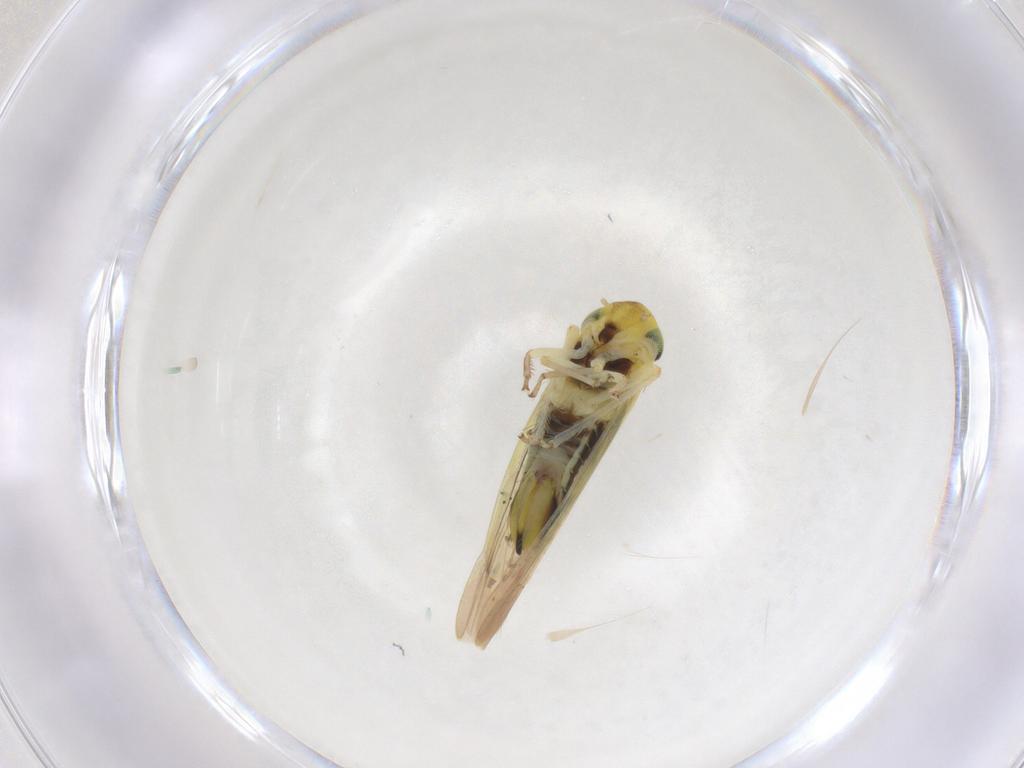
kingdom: Animalia
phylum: Arthropoda
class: Insecta
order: Hemiptera
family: Cicadellidae
